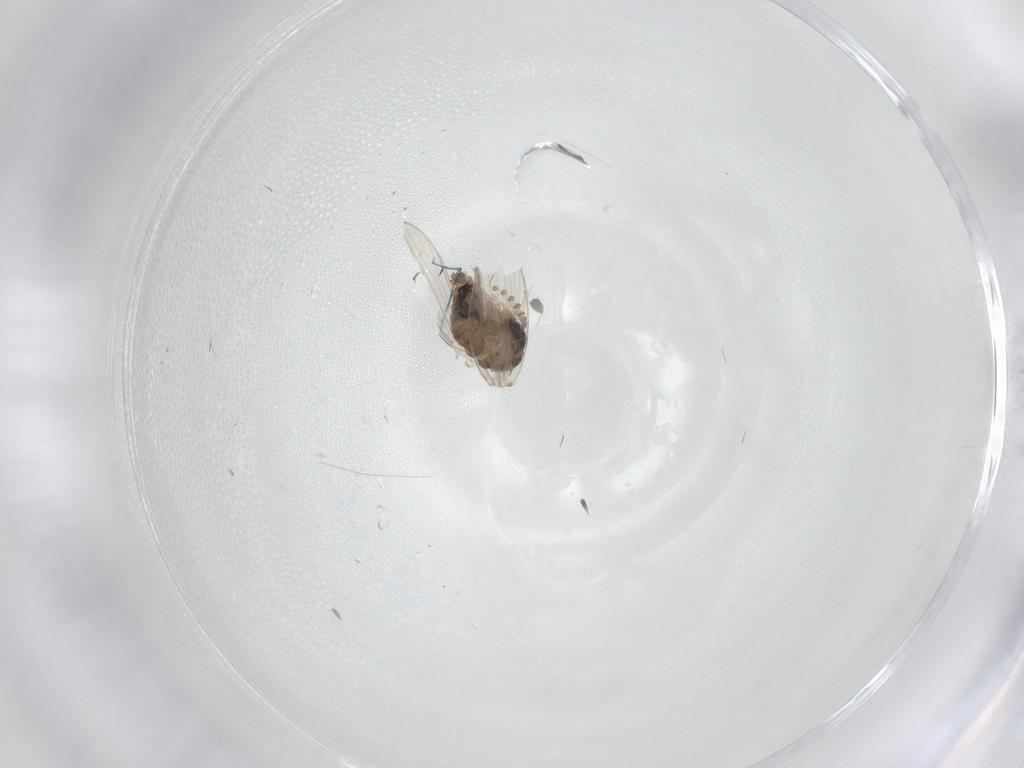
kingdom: Animalia
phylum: Arthropoda
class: Insecta
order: Diptera
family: Psychodidae
